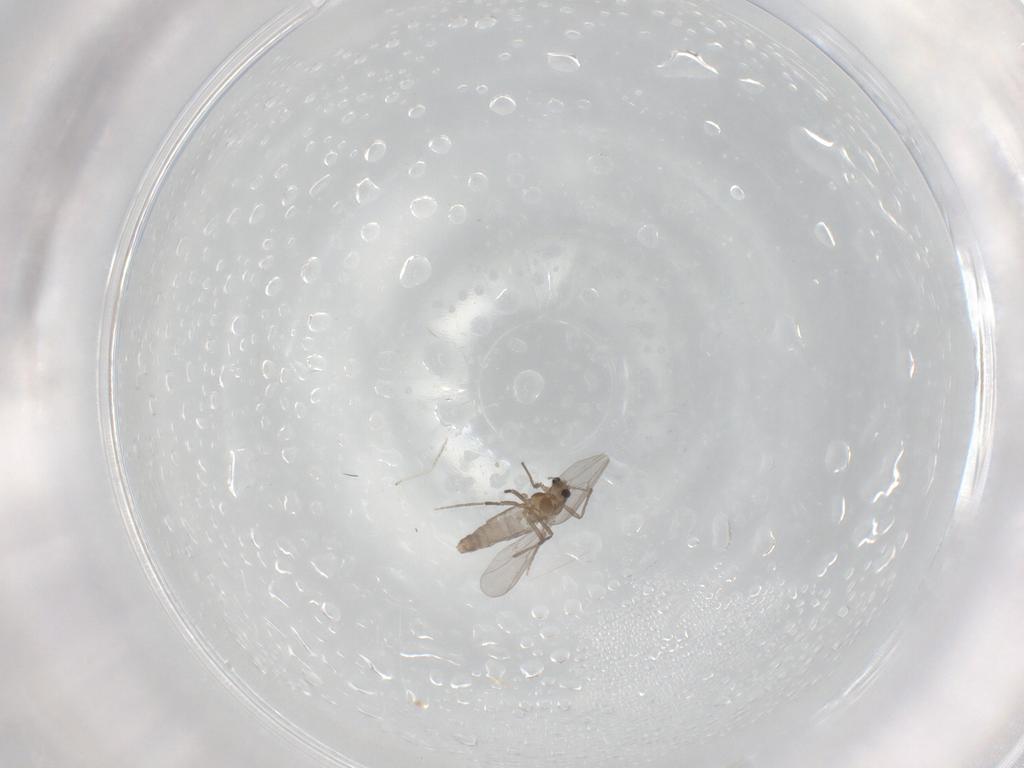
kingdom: Animalia
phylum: Arthropoda
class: Insecta
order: Diptera
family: Chironomidae
